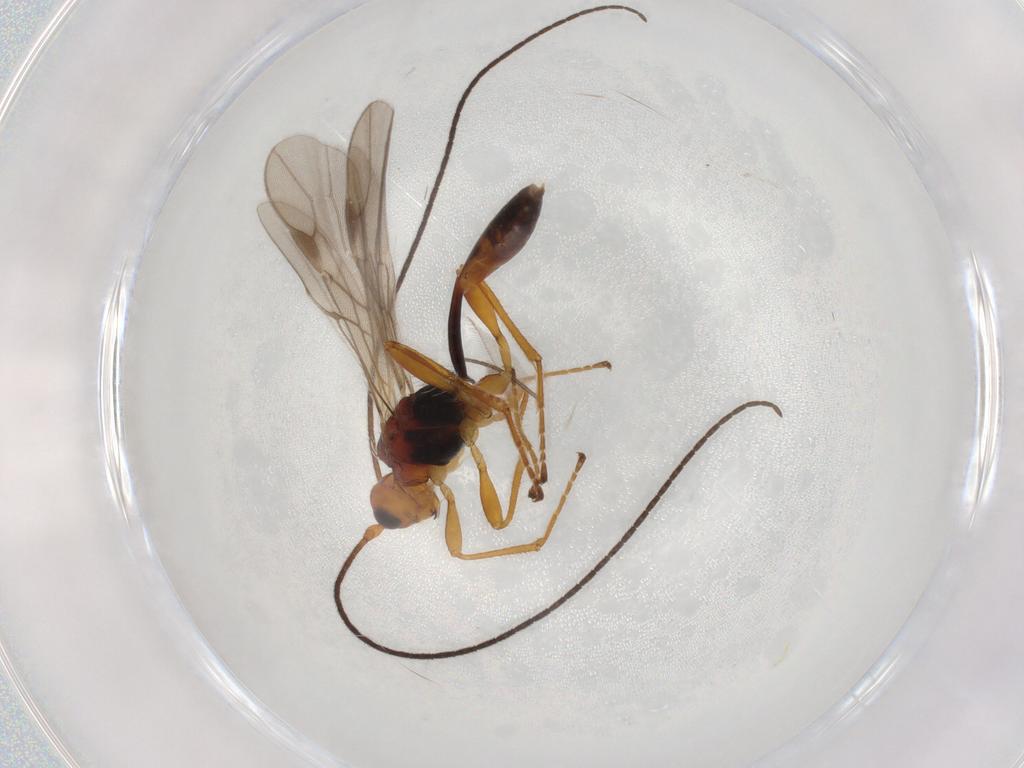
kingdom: Animalia
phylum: Arthropoda
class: Insecta
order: Hymenoptera
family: Braconidae
